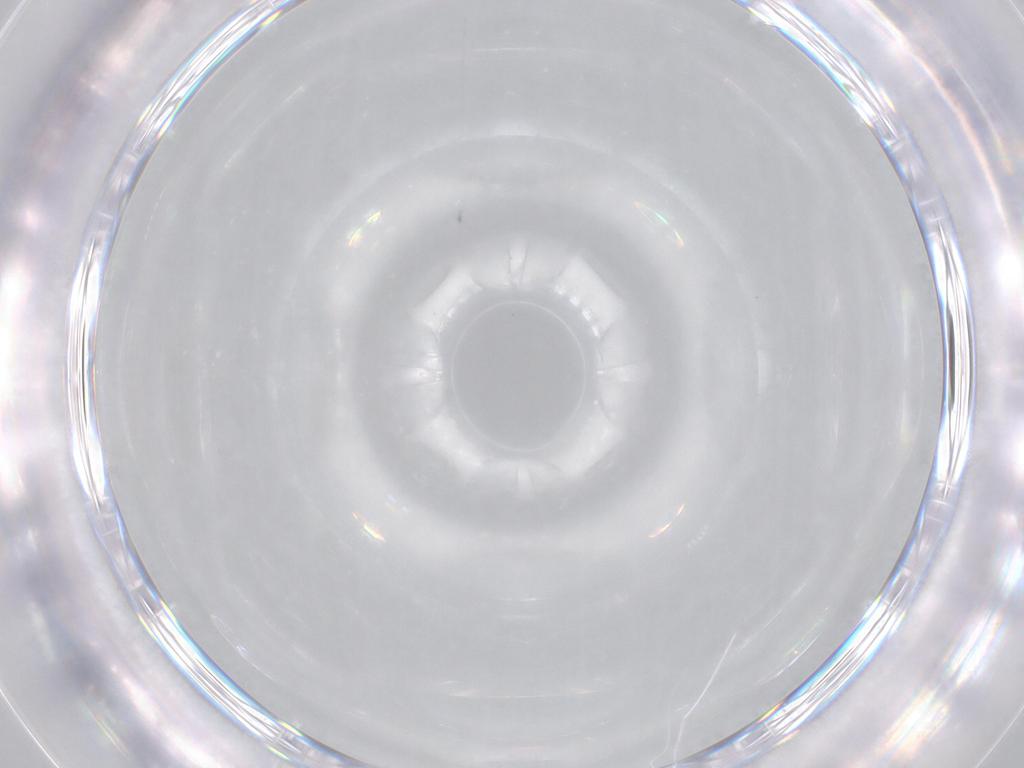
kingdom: Animalia
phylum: Arthropoda
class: Insecta
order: Diptera
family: Anthomyiidae
